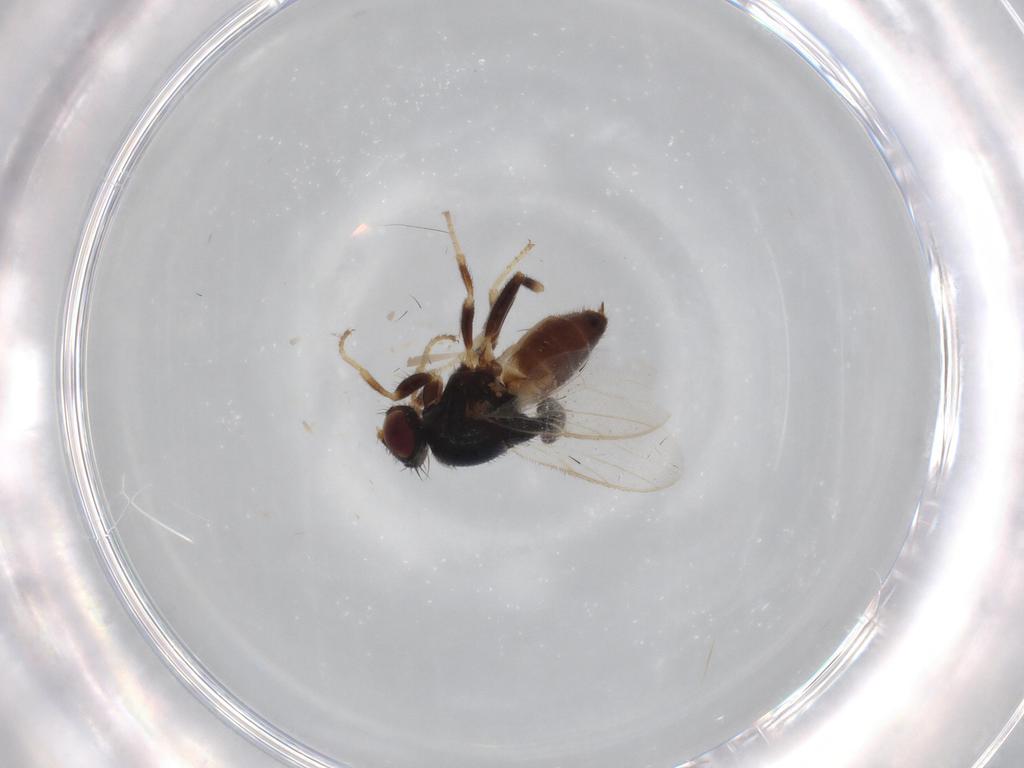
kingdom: Animalia
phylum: Arthropoda
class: Insecta
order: Diptera
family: Chloropidae
